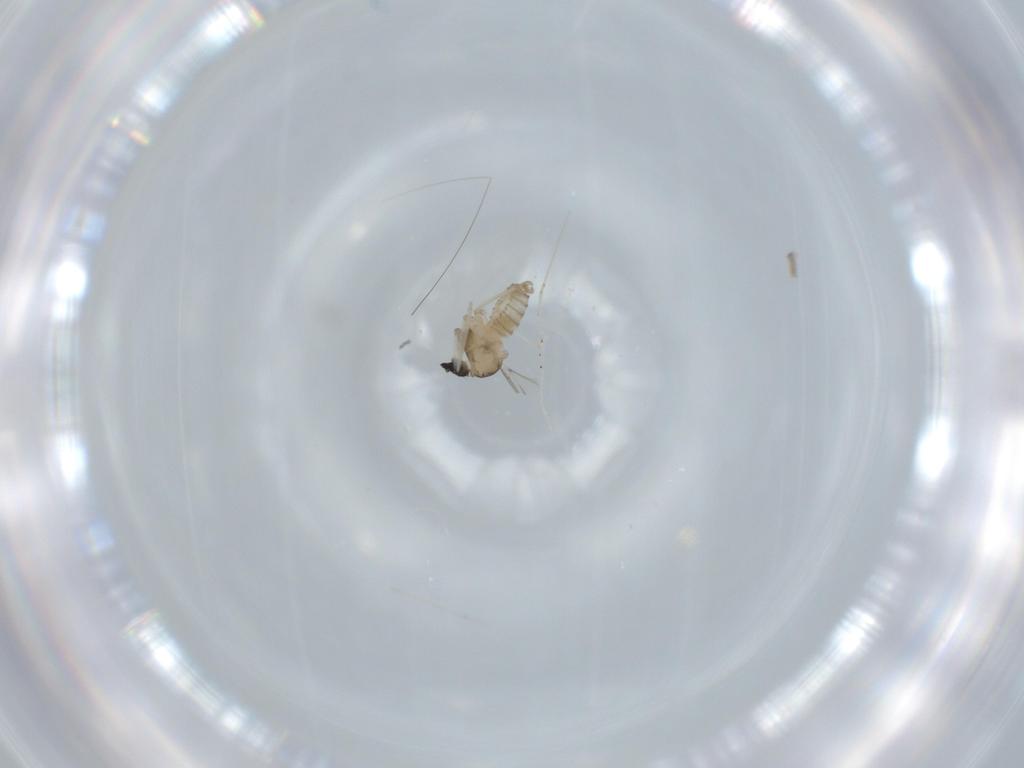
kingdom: Animalia
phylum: Arthropoda
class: Insecta
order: Diptera
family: Cecidomyiidae
